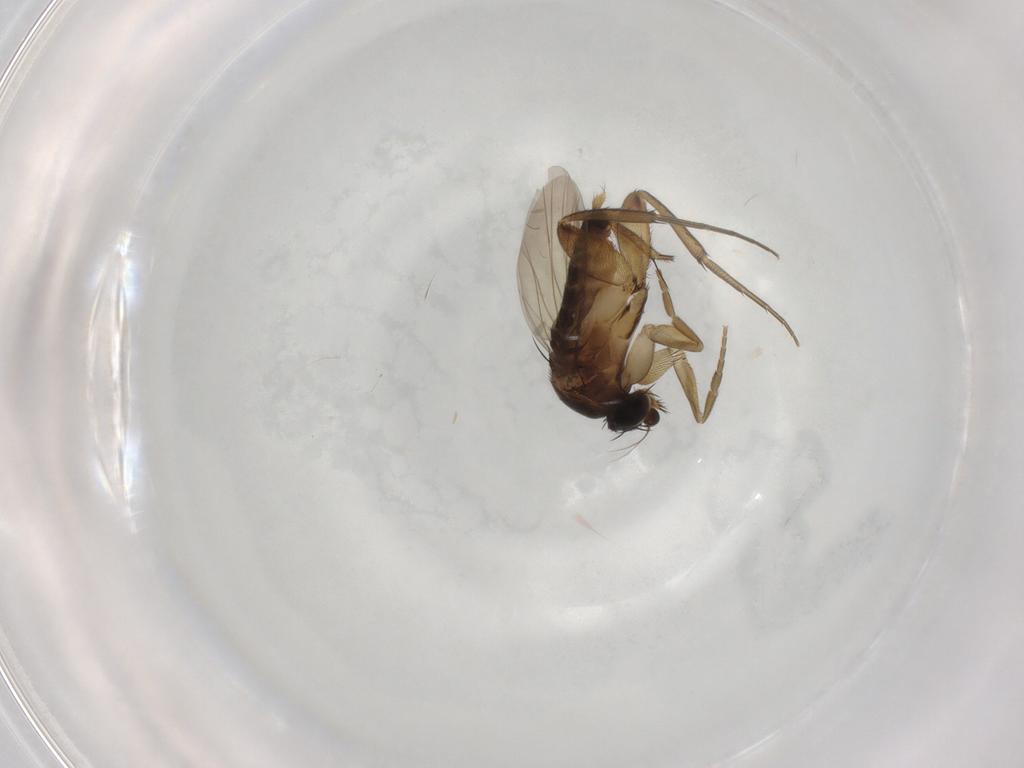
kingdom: Animalia
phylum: Arthropoda
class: Insecta
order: Diptera
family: Phoridae
